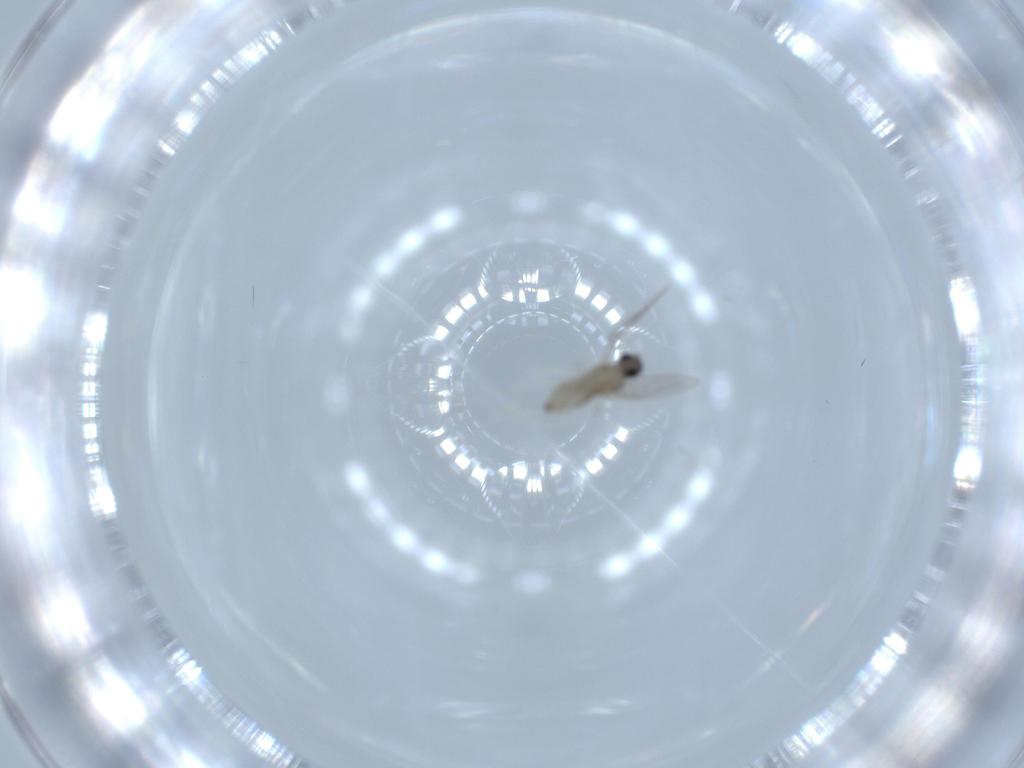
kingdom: Animalia
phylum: Arthropoda
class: Insecta
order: Diptera
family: Cecidomyiidae
